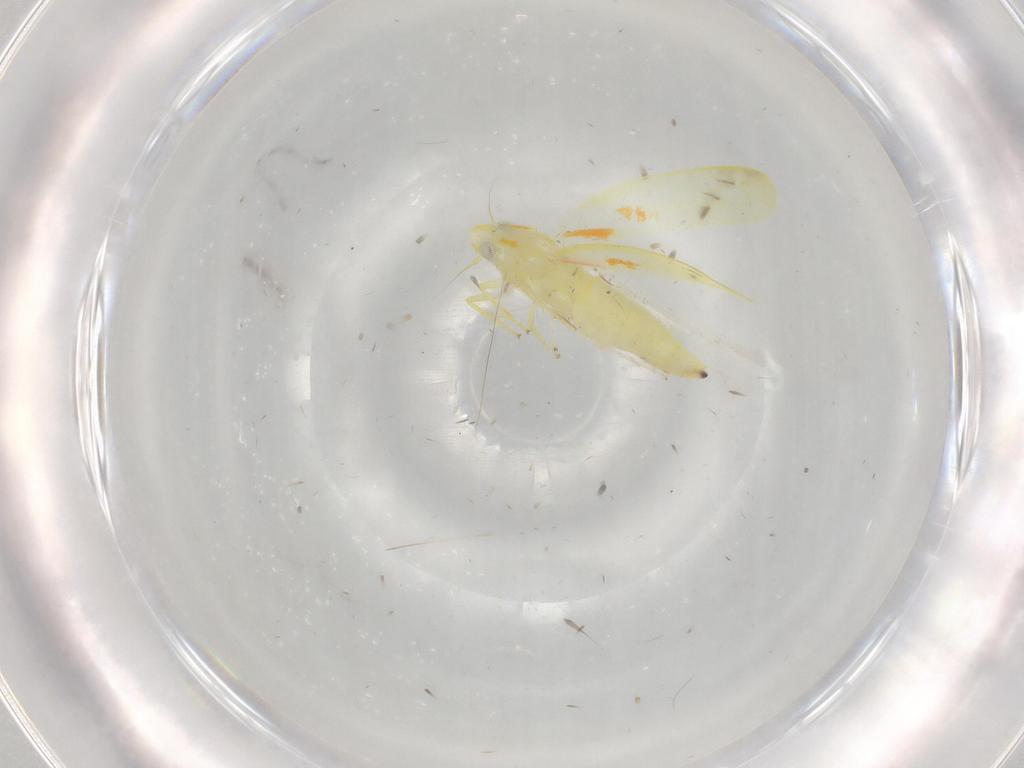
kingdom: Animalia
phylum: Arthropoda
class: Insecta
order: Hemiptera
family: Cicadellidae
